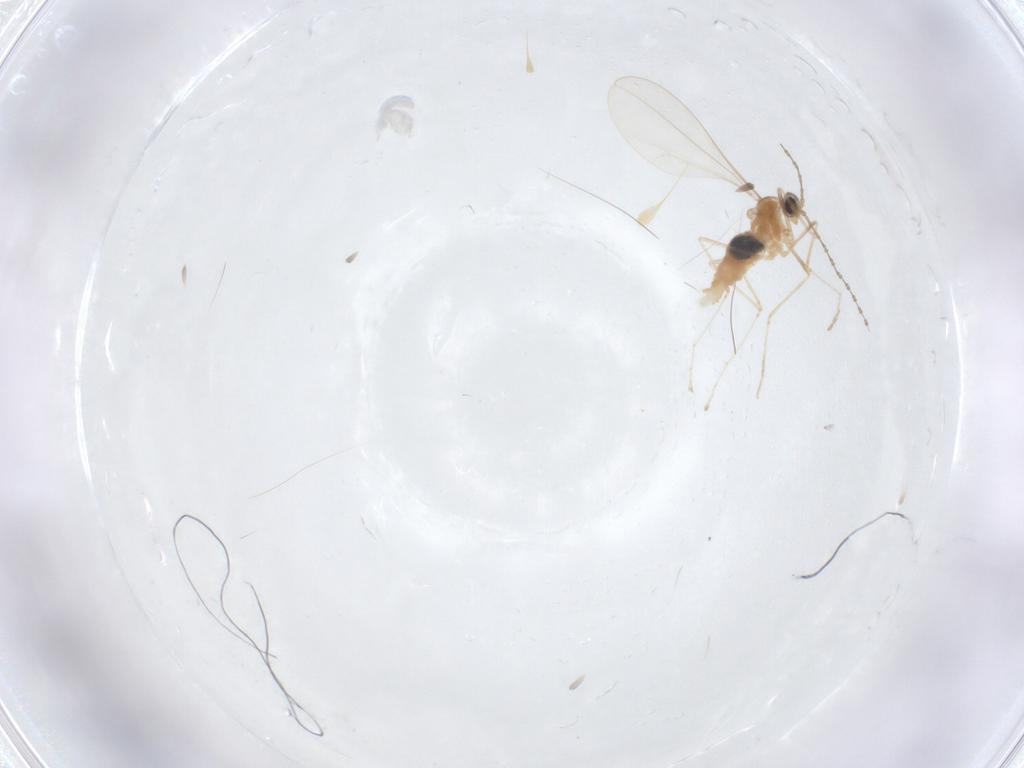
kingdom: Animalia
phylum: Arthropoda
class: Insecta
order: Diptera
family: Cecidomyiidae
